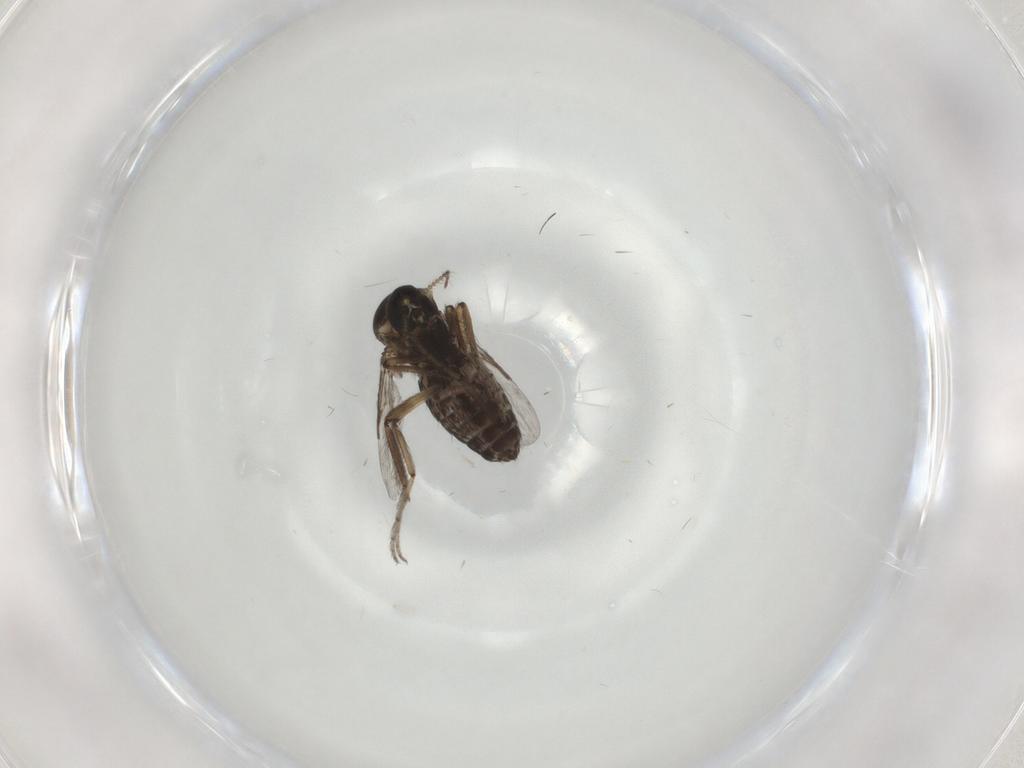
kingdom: Animalia
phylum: Arthropoda
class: Insecta
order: Diptera
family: Ceratopogonidae
